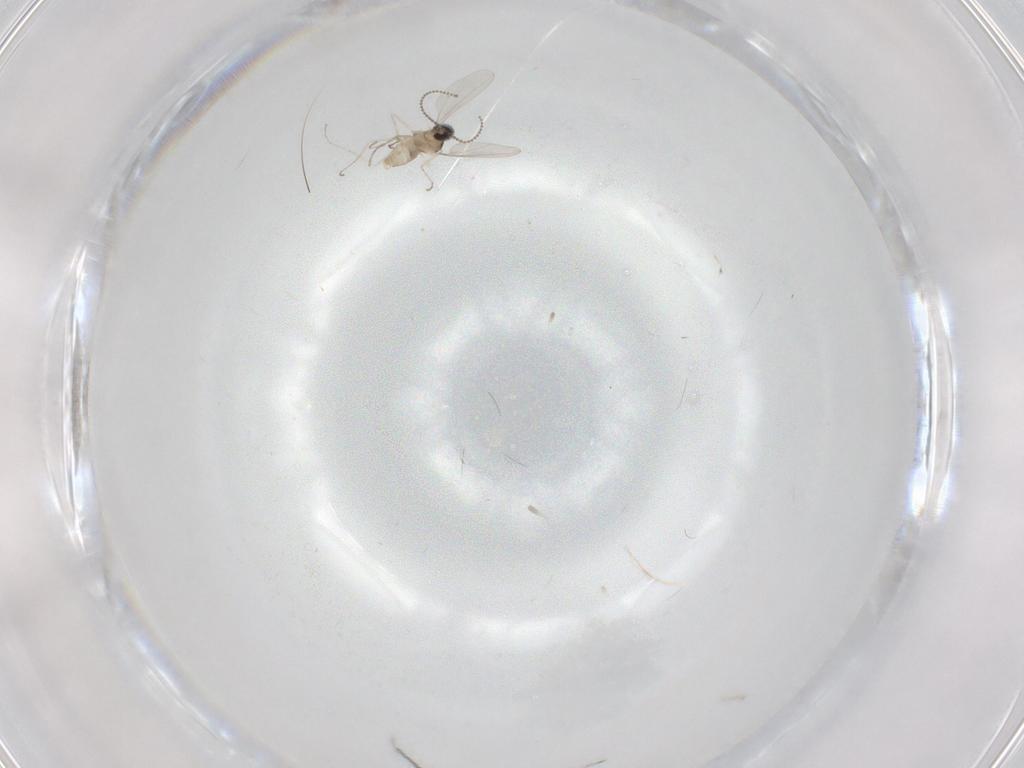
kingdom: Animalia
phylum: Arthropoda
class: Insecta
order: Diptera
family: Cecidomyiidae
